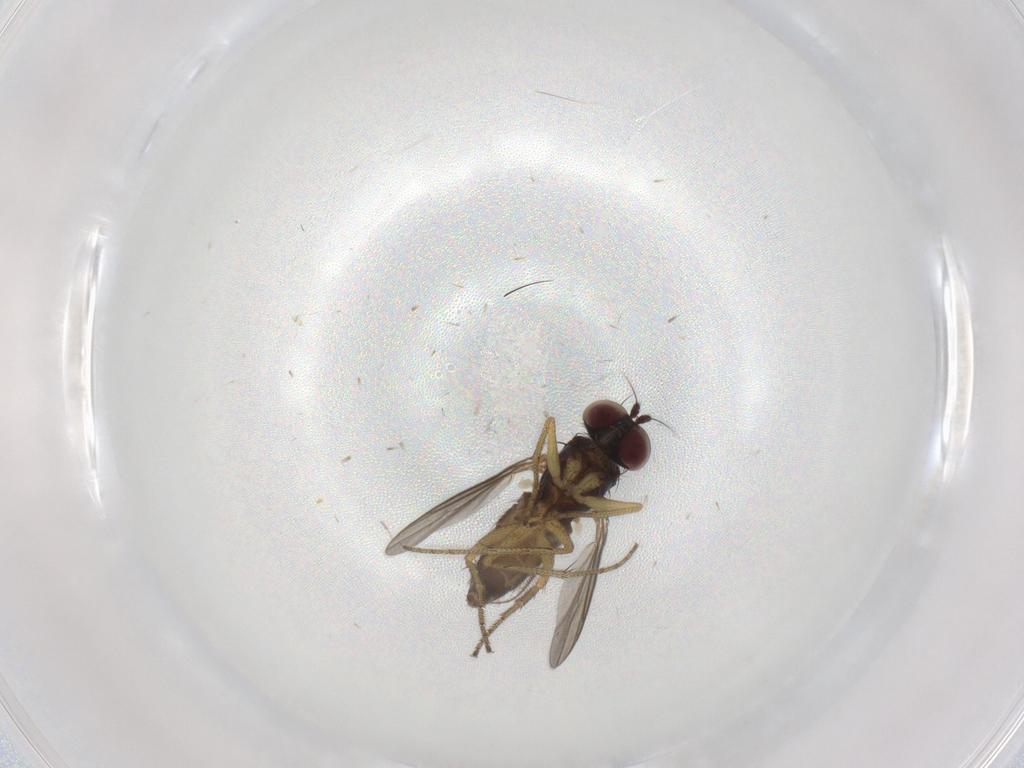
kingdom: Animalia
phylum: Arthropoda
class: Insecta
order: Diptera
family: Dolichopodidae
